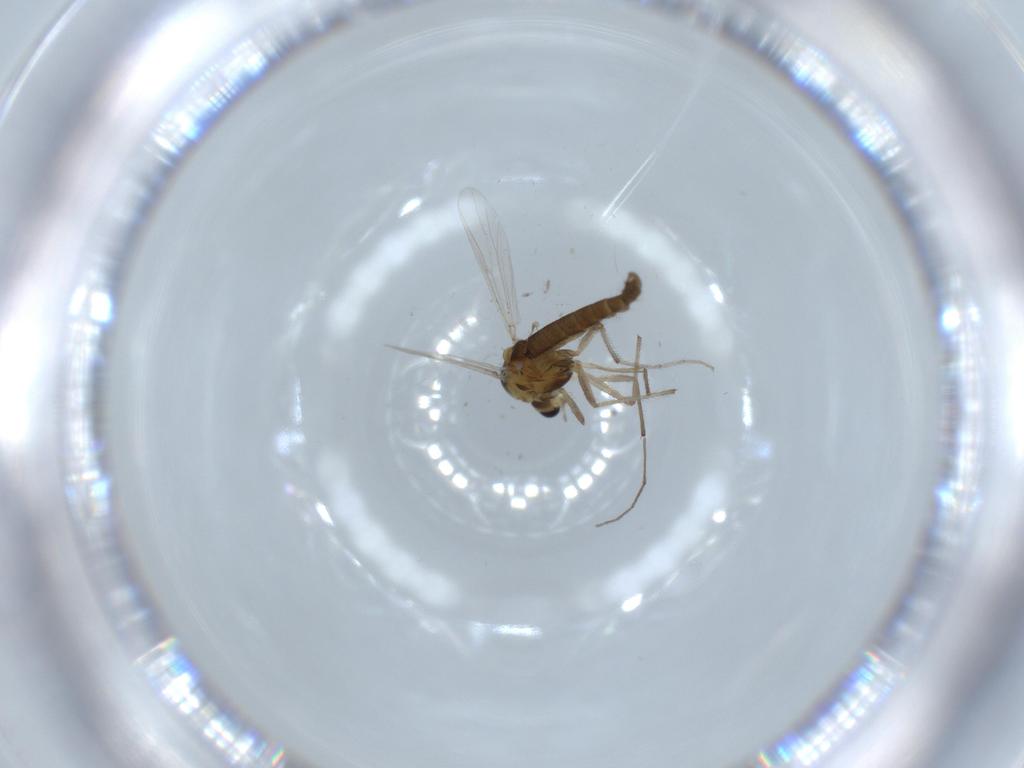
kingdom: Animalia
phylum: Arthropoda
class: Insecta
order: Diptera
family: Chironomidae
